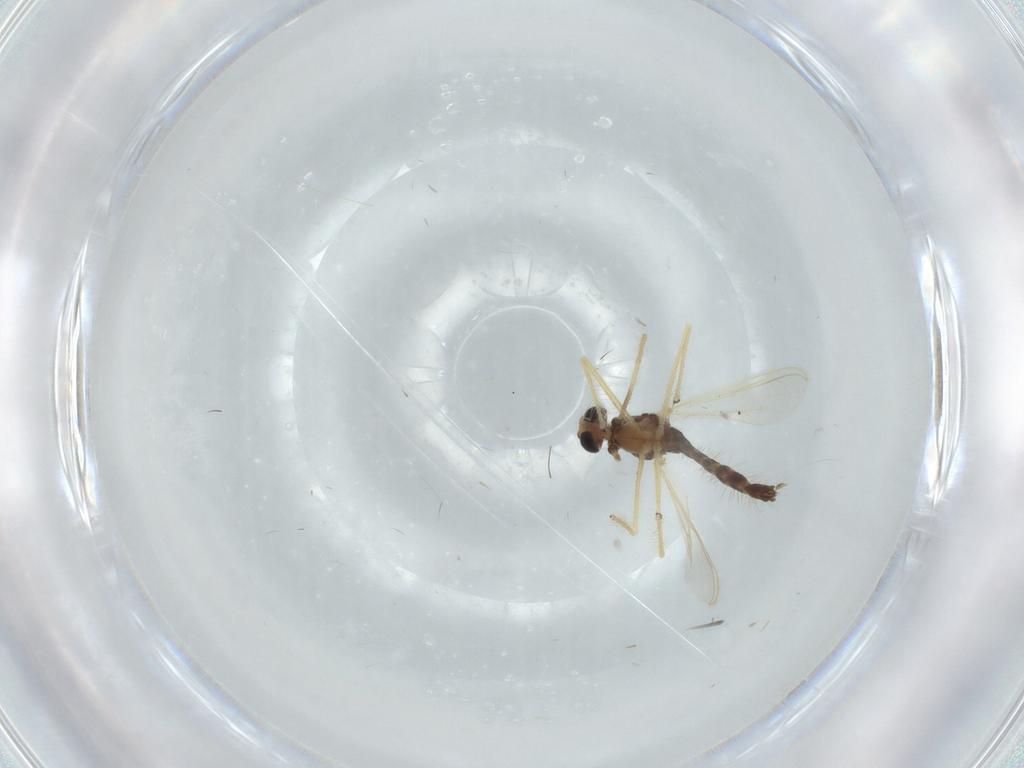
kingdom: Animalia
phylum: Arthropoda
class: Insecta
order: Diptera
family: Chironomidae
